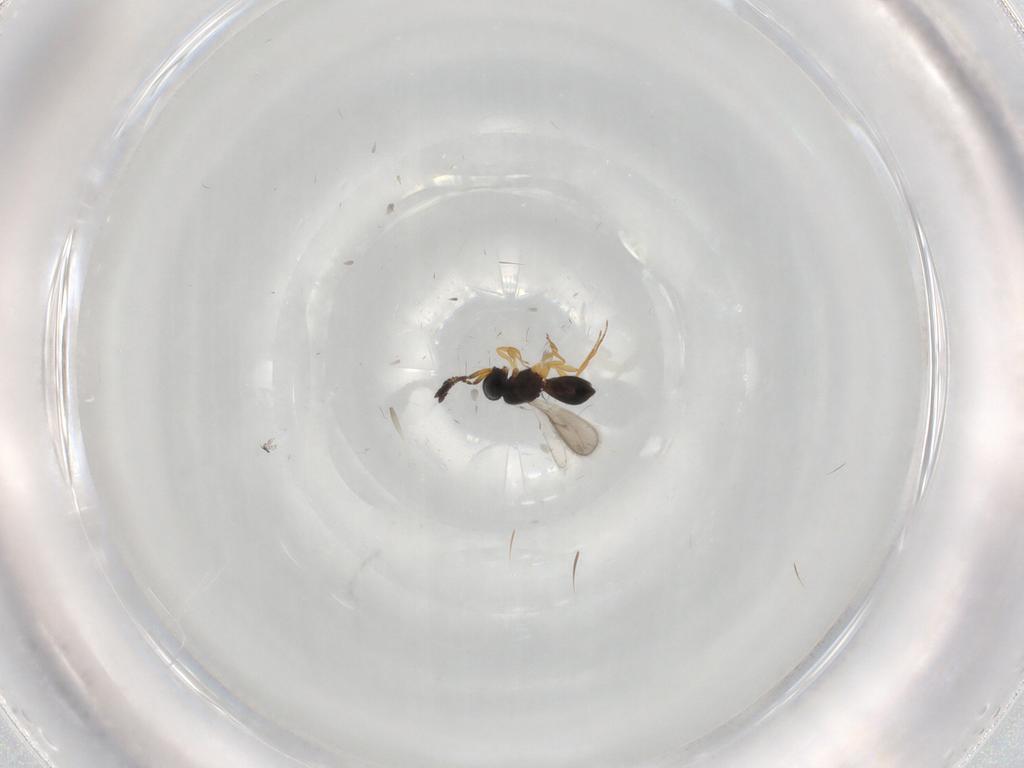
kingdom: Animalia
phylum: Arthropoda
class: Insecta
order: Hymenoptera
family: Scelionidae
